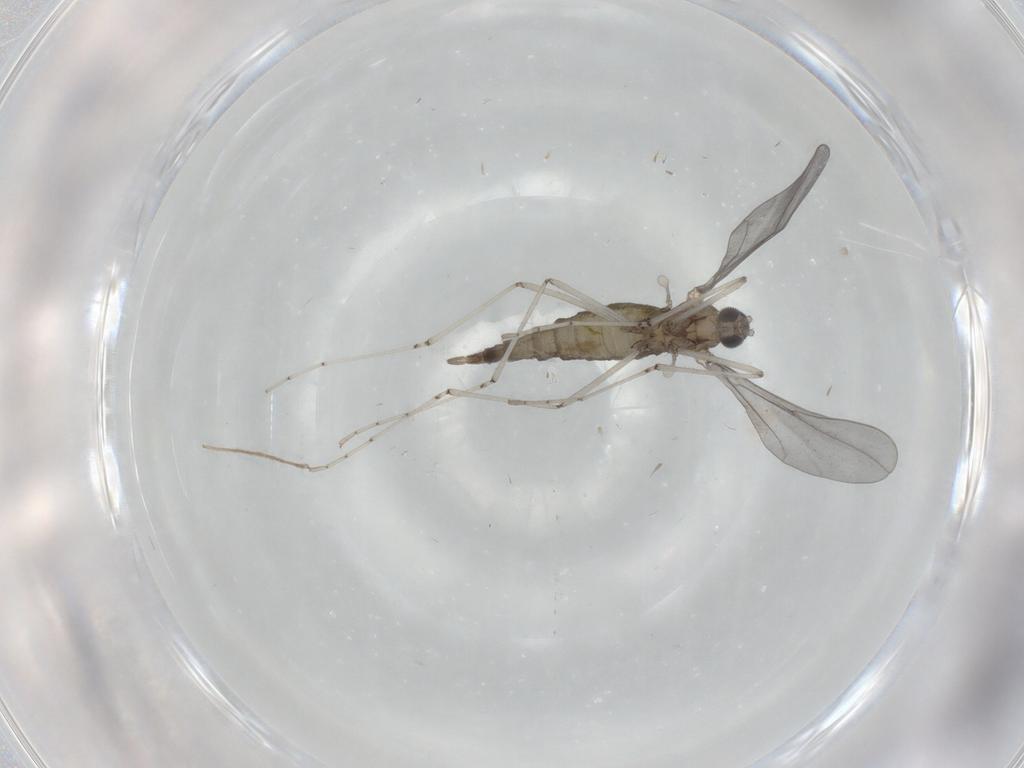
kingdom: Animalia
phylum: Arthropoda
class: Insecta
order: Diptera
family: Cecidomyiidae
